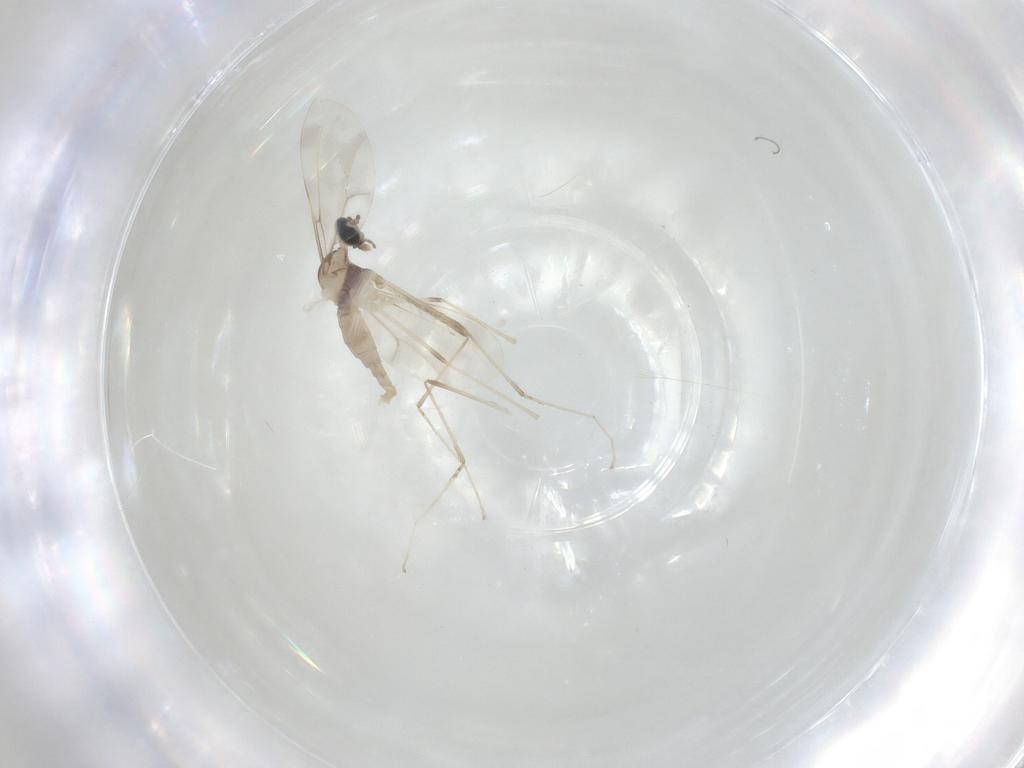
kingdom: Animalia
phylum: Arthropoda
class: Insecta
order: Diptera
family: Cecidomyiidae
